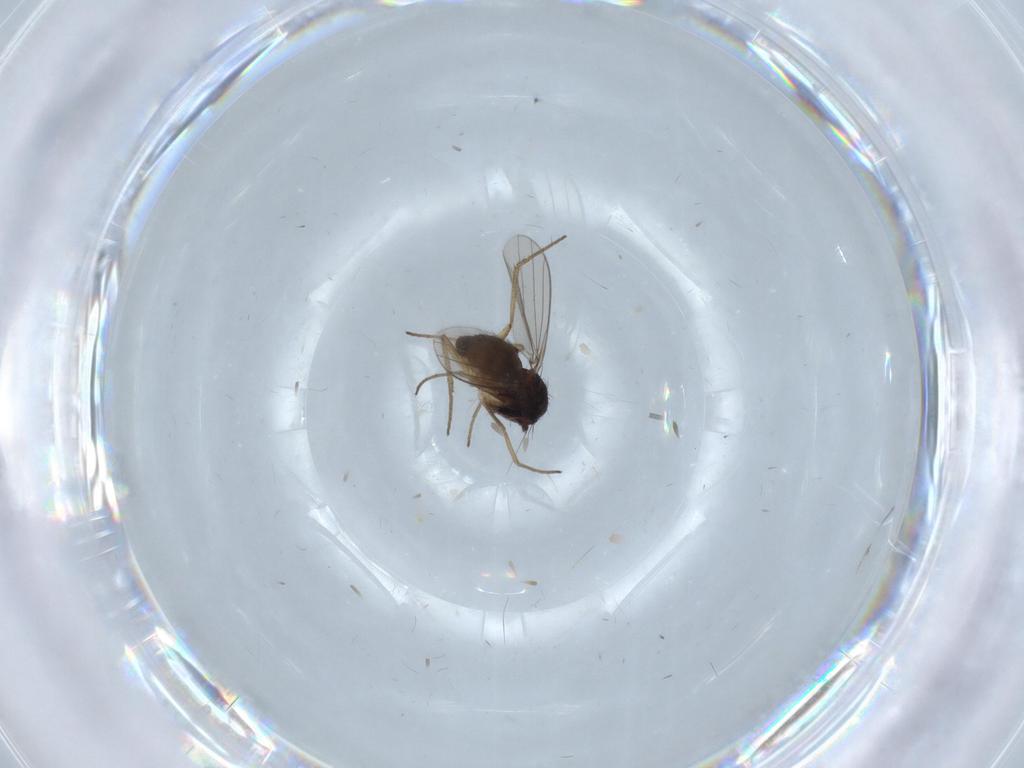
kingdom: Animalia
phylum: Arthropoda
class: Insecta
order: Diptera
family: Dolichopodidae
